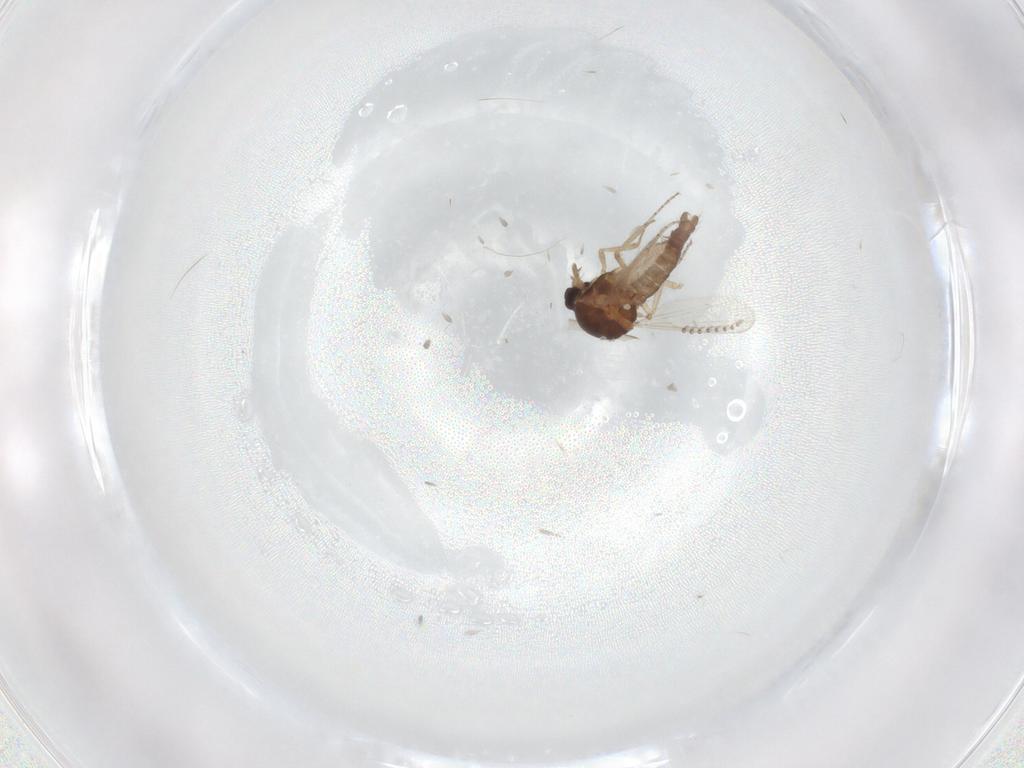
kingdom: Animalia
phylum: Arthropoda
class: Insecta
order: Diptera
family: Ceratopogonidae
